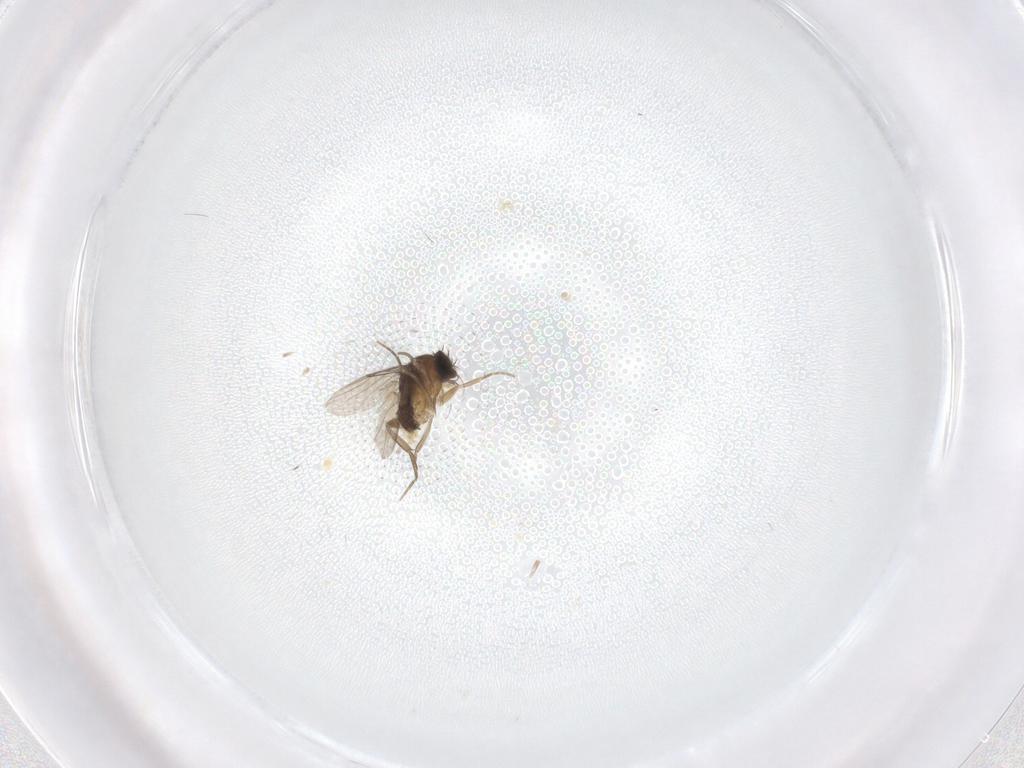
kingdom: Animalia
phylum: Arthropoda
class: Insecta
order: Diptera
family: Phoridae
